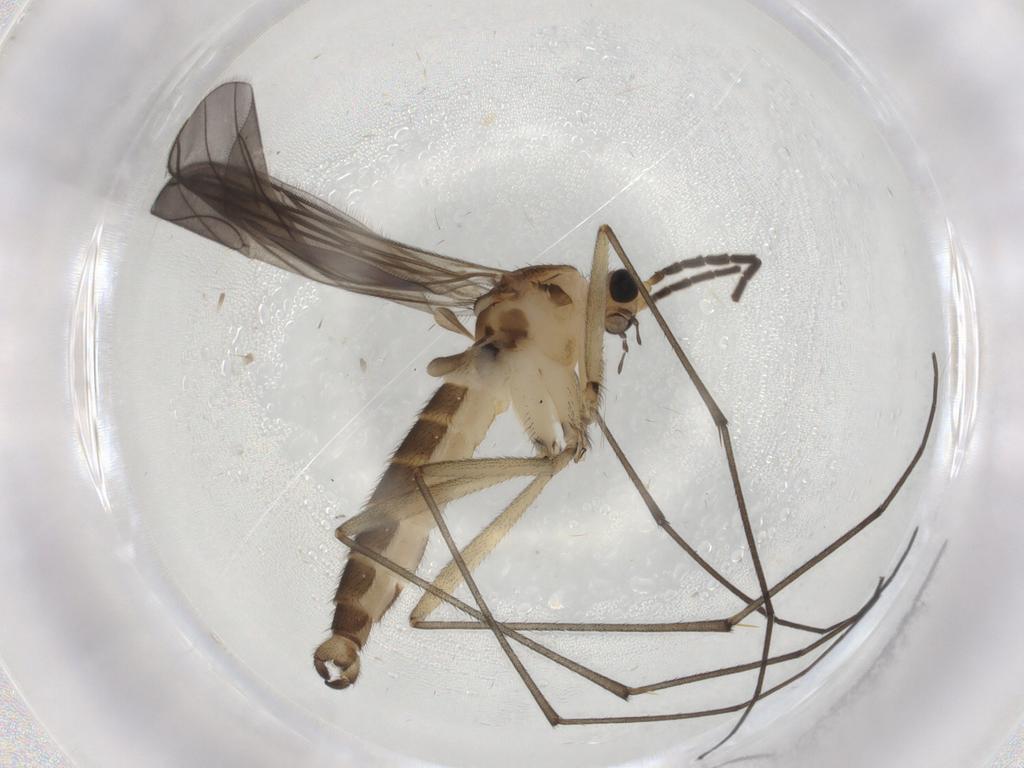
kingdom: Animalia
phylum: Arthropoda
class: Insecta
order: Diptera
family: Sciaridae
